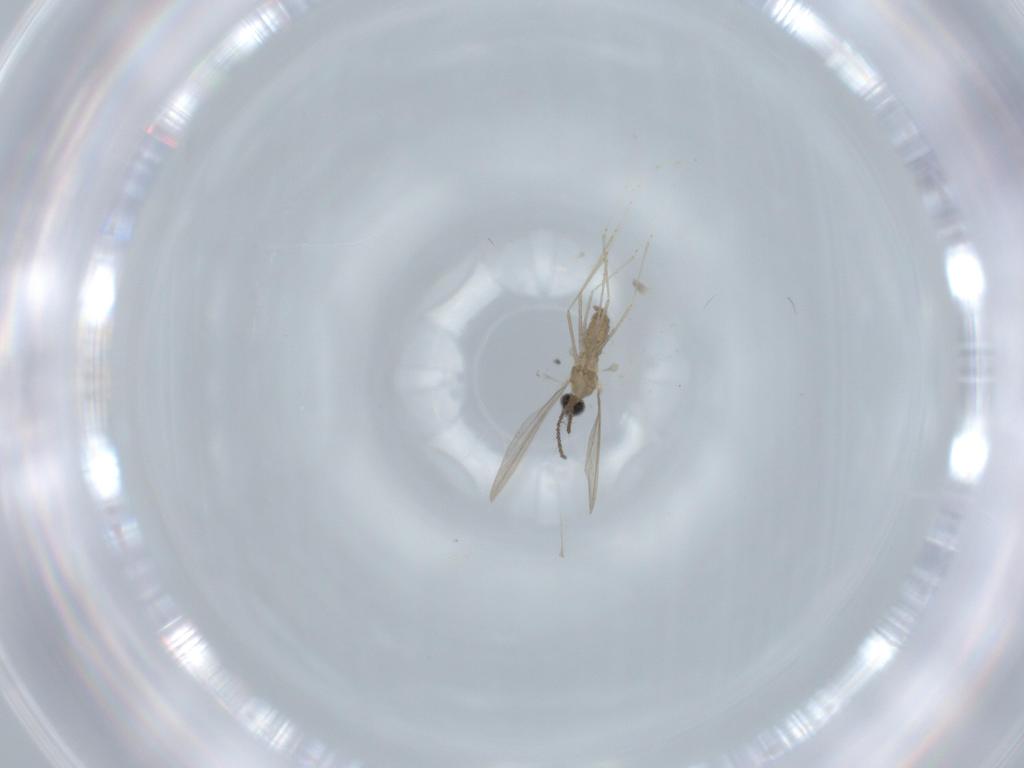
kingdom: Animalia
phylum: Arthropoda
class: Insecta
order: Diptera
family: Cecidomyiidae
